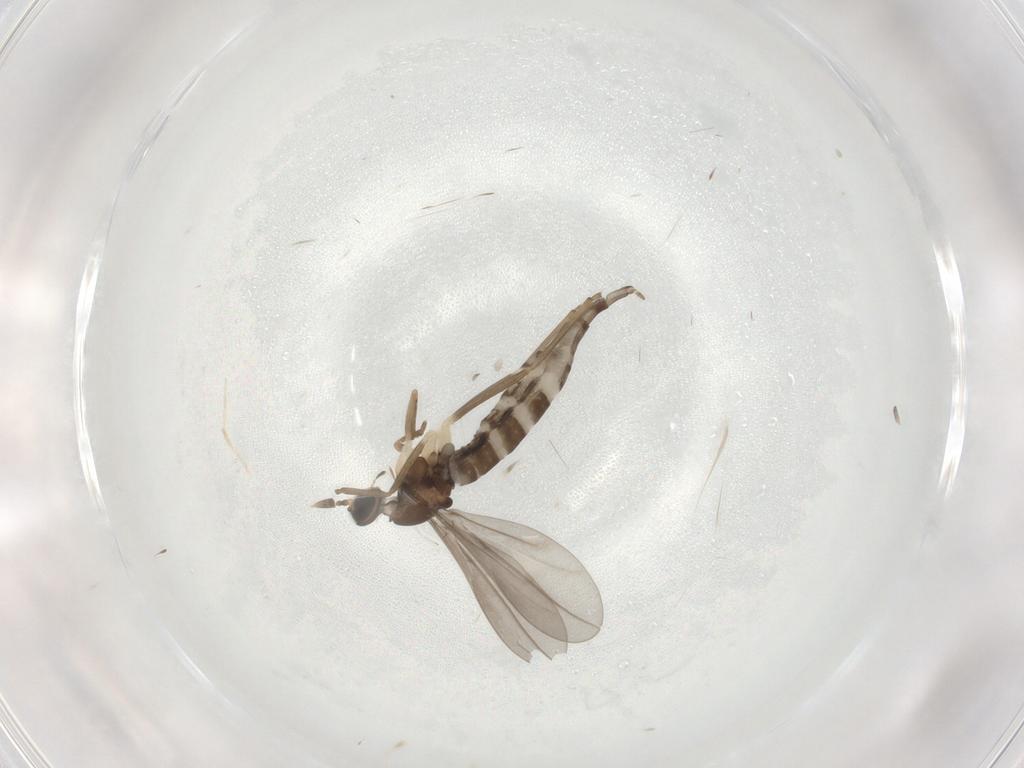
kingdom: Animalia
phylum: Arthropoda
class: Insecta
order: Diptera
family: Cecidomyiidae
